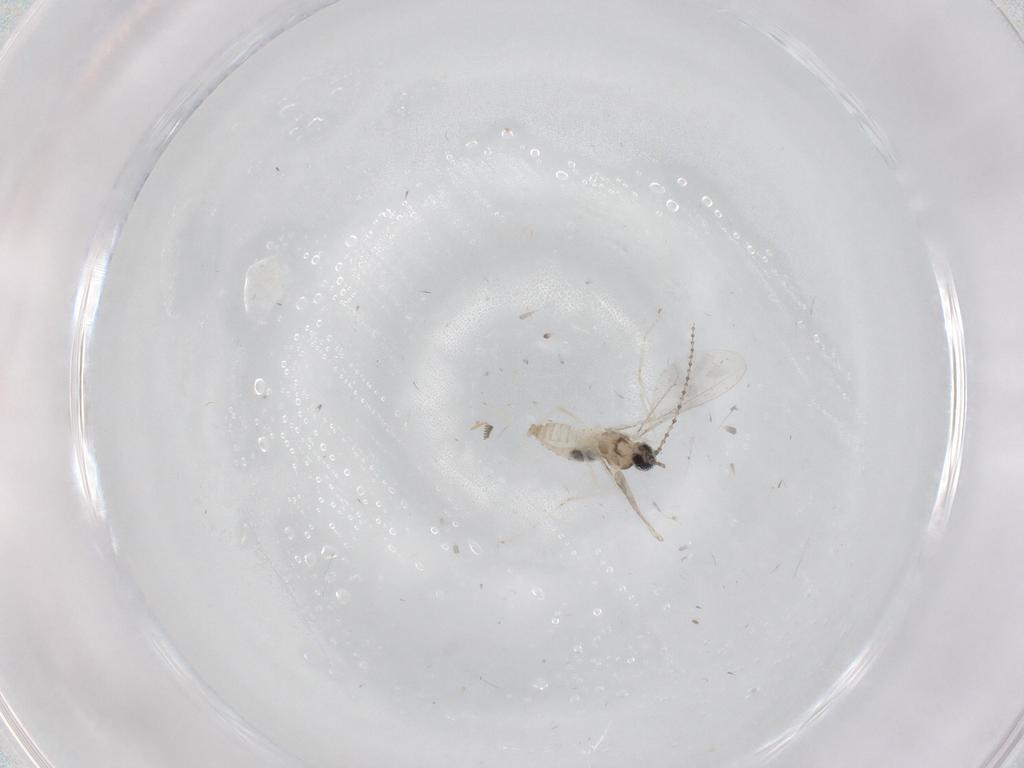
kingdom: Animalia
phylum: Arthropoda
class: Insecta
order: Diptera
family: Cecidomyiidae
